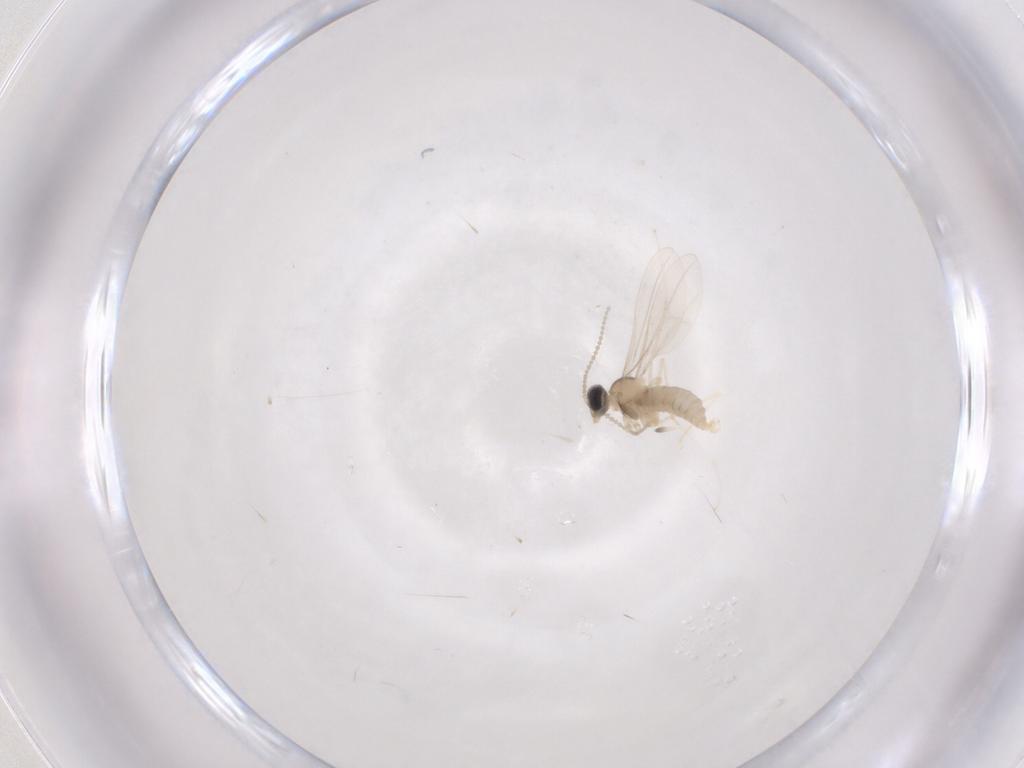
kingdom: Animalia
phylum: Arthropoda
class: Insecta
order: Diptera
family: Cecidomyiidae
